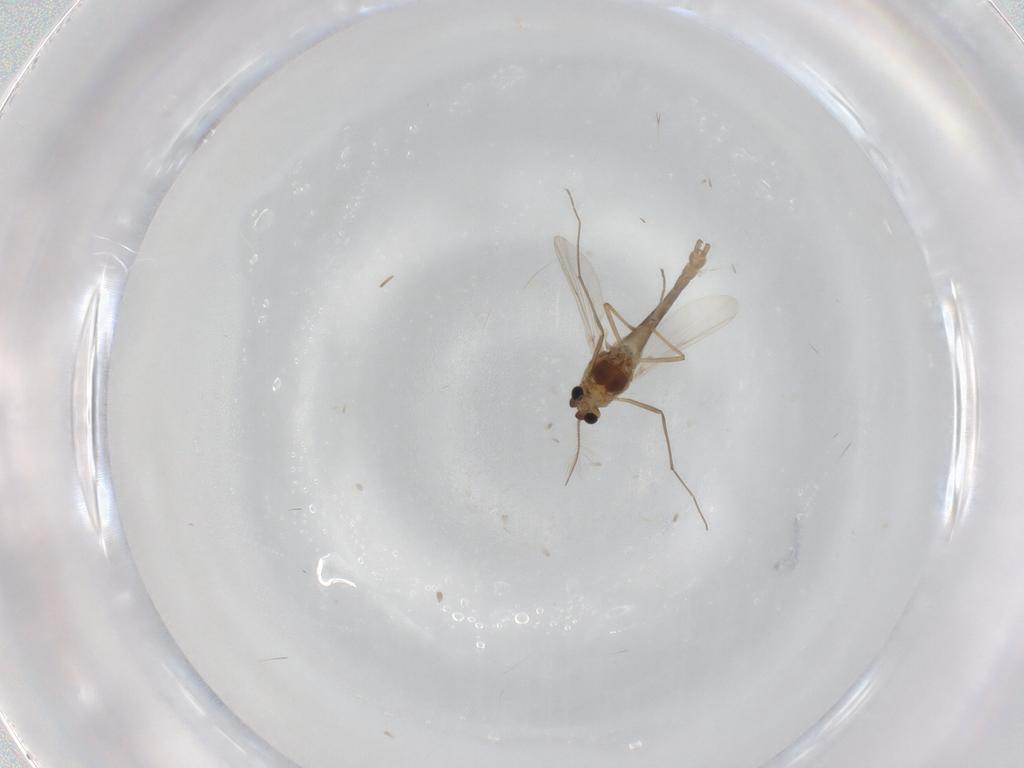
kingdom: Animalia
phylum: Arthropoda
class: Insecta
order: Diptera
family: Chironomidae
